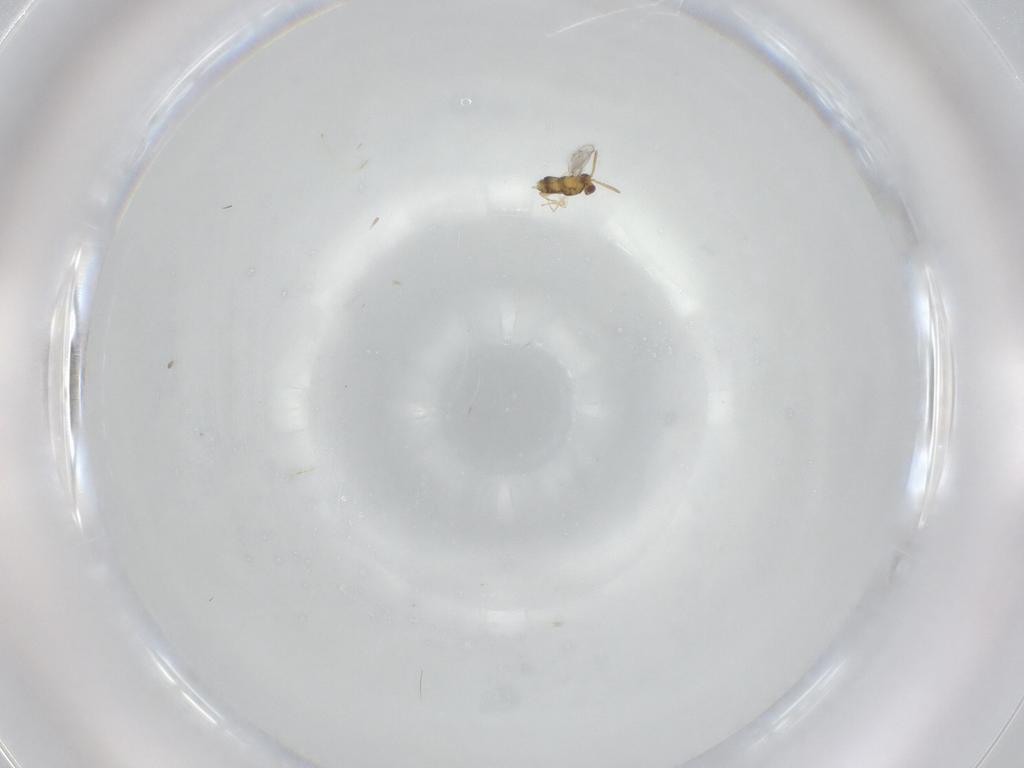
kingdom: Animalia
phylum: Arthropoda
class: Insecta
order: Hymenoptera
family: Aphelinidae
